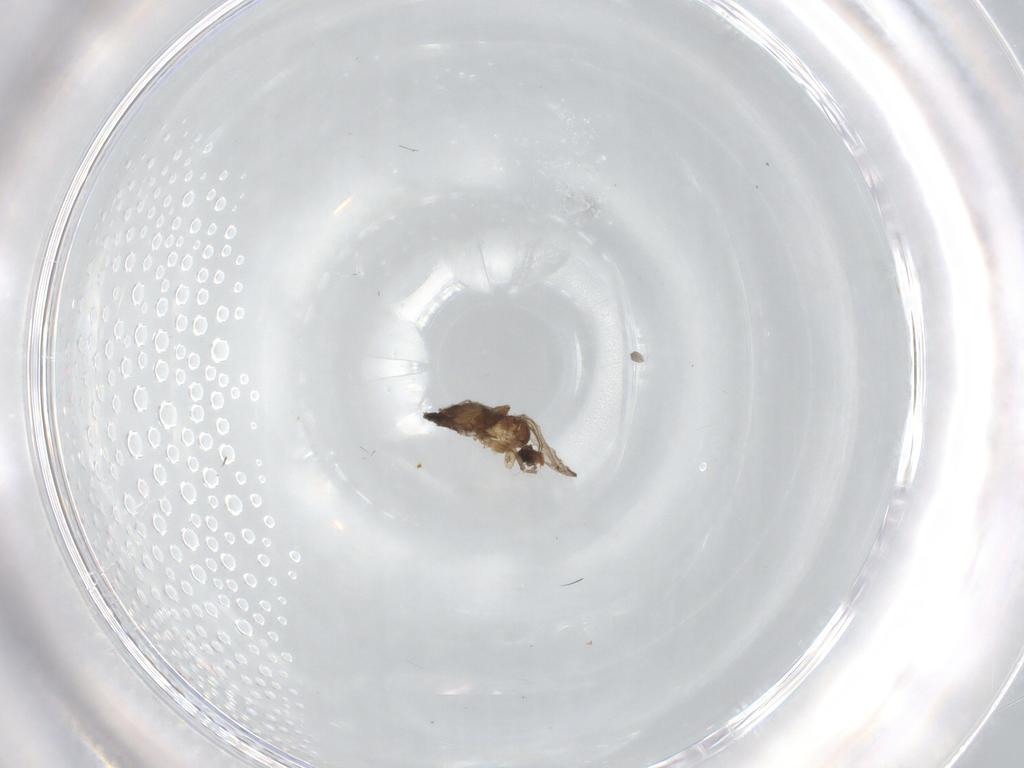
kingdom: Animalia
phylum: Arthropoda
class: Insecta
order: Diptera
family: Phoridae
